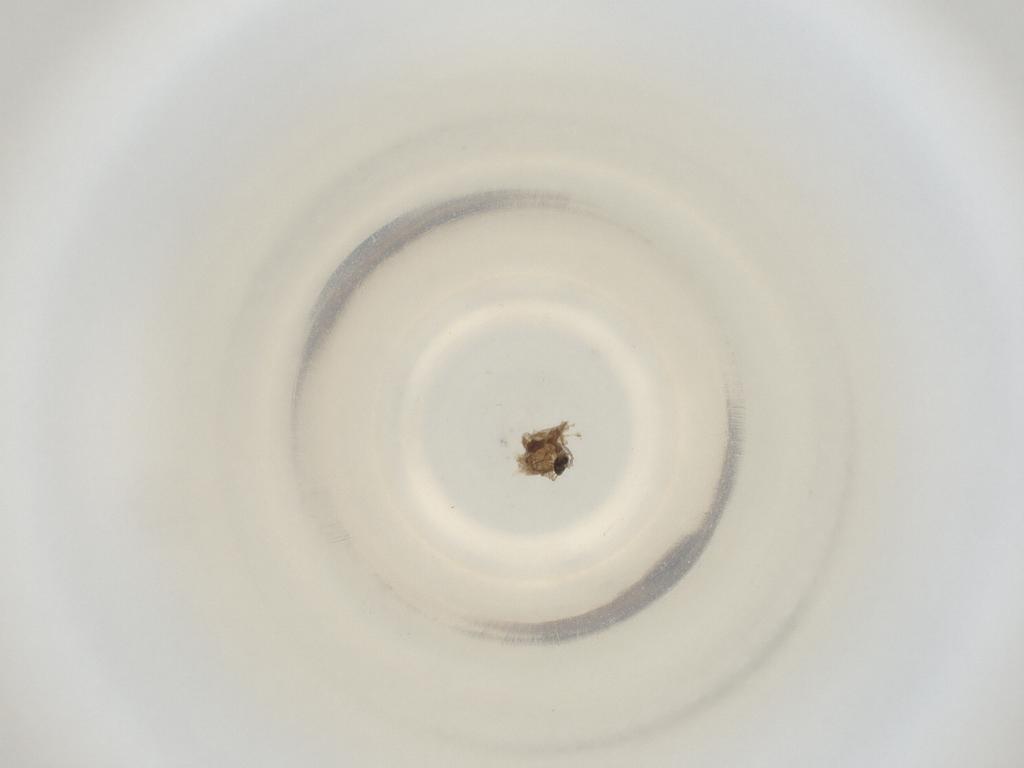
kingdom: Animalia
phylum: Arthropoda
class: Insecta
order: Diptera
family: Cecidomyiidae
